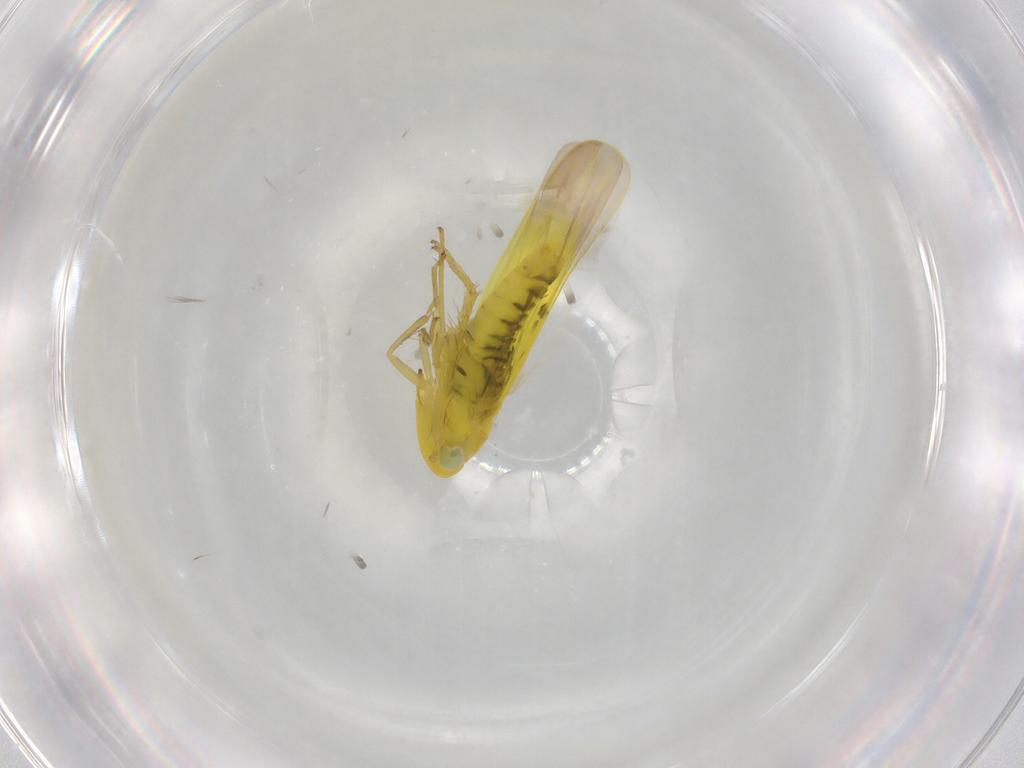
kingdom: Animalia
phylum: Arthropoda
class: Insecta
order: Hemiptera
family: Cicadellidae
